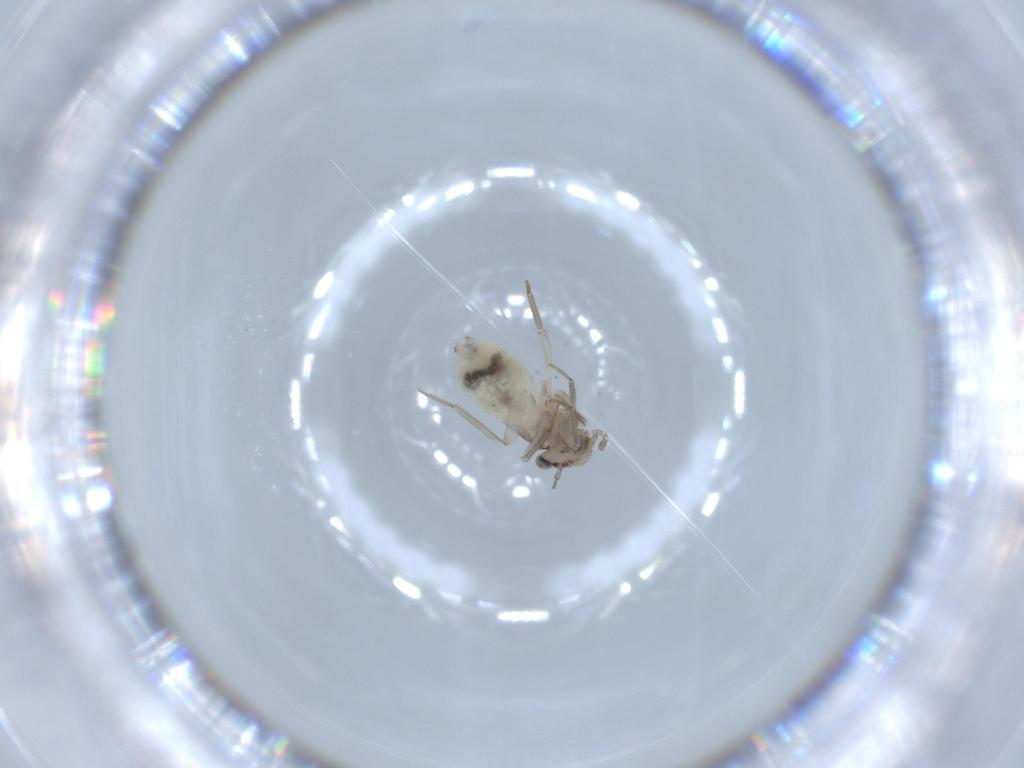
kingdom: Animalia
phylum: Arthropoda
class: Insecta
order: Psocodea
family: Lepidopsocidae
